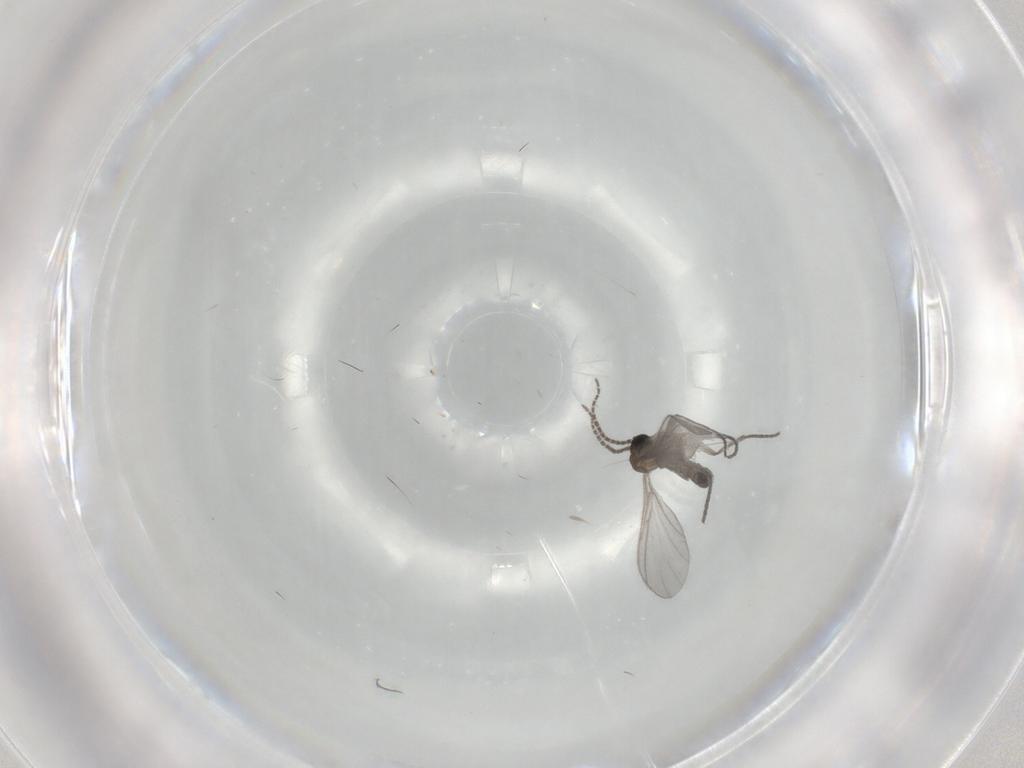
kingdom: Animalia
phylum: Arthropoda
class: Insecta
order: Diptera
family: Sciaridae
